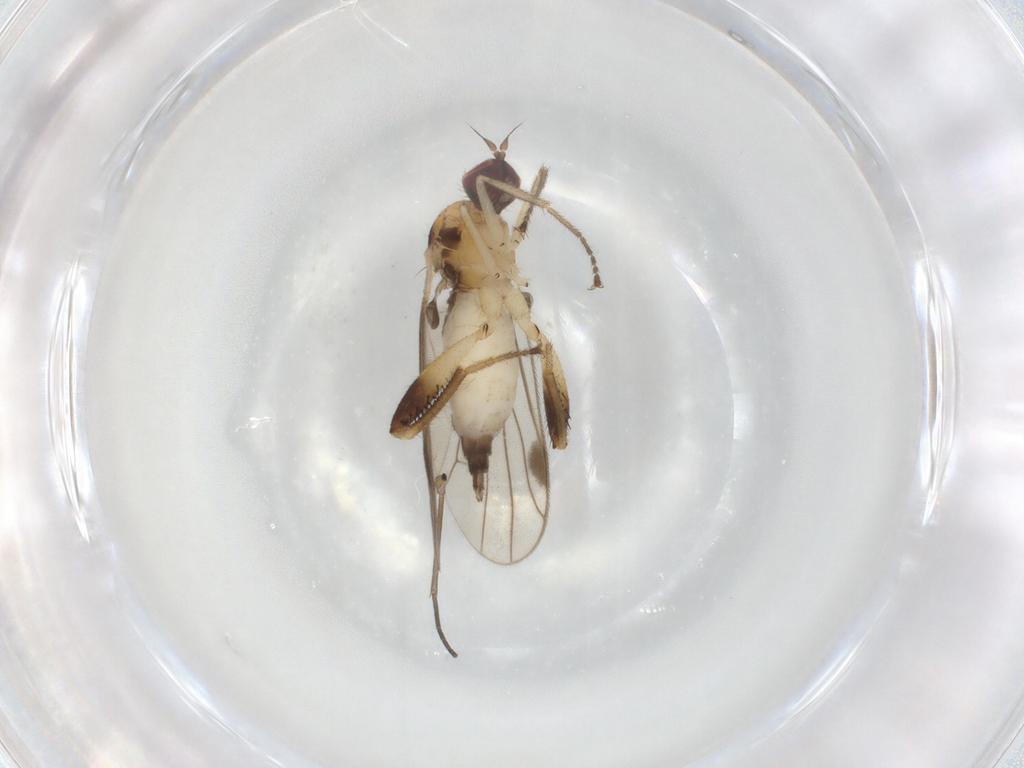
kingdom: Animalia
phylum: Arthropoda
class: Insecta
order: Diptera
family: Hybotidae
